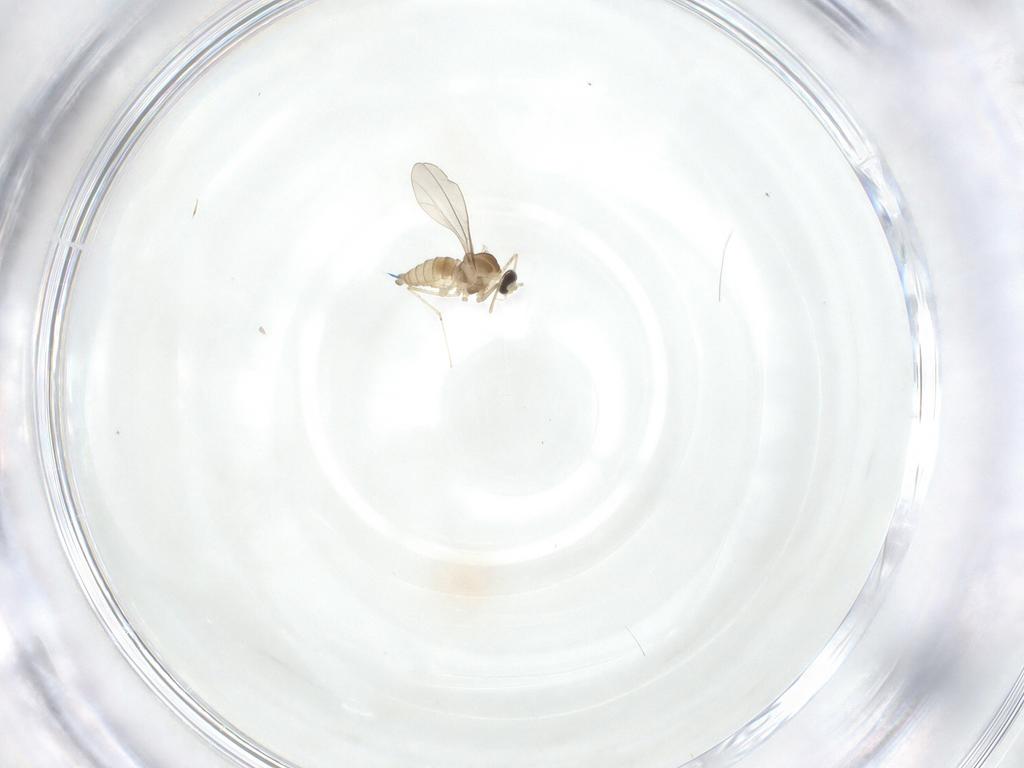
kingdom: Animalia
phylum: Arthropoda
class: Insecta
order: Diptera
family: Cecidomyiidae
